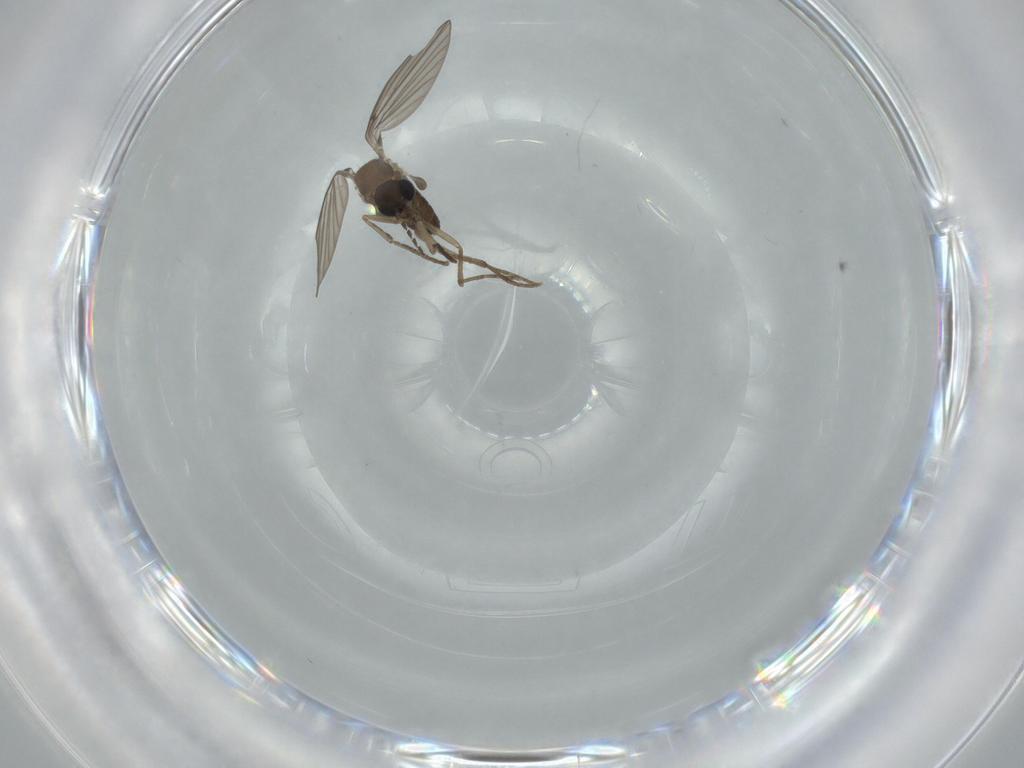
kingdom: Animalia
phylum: Arthropoda
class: Insecta
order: Diptera
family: Psychodidae
